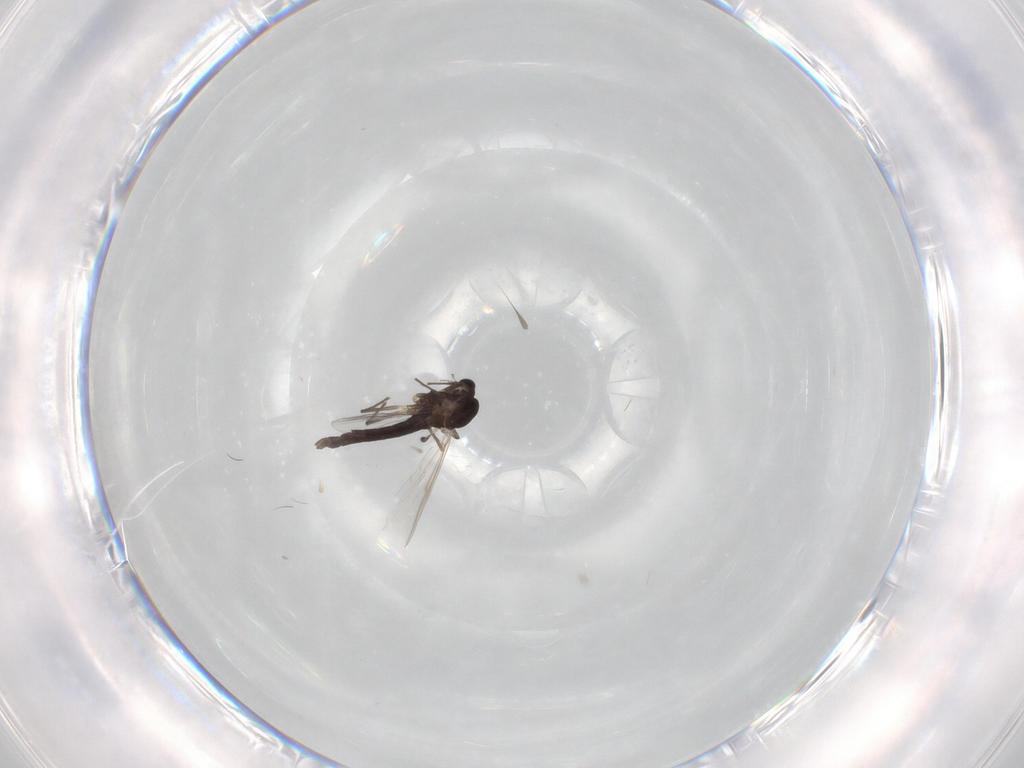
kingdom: Animalia
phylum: Arthropoda
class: Insecta
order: Diptera
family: Chironomidae
